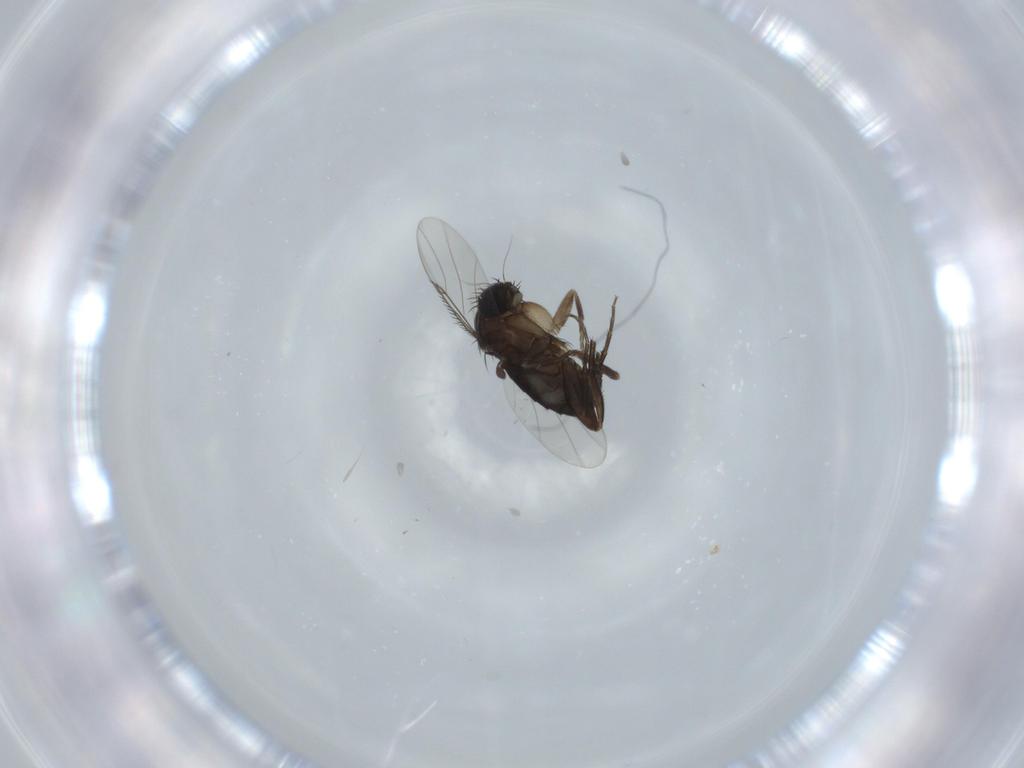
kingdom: Animalia
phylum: Arthropoda
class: Insecta
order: Diptera
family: Phoridae
